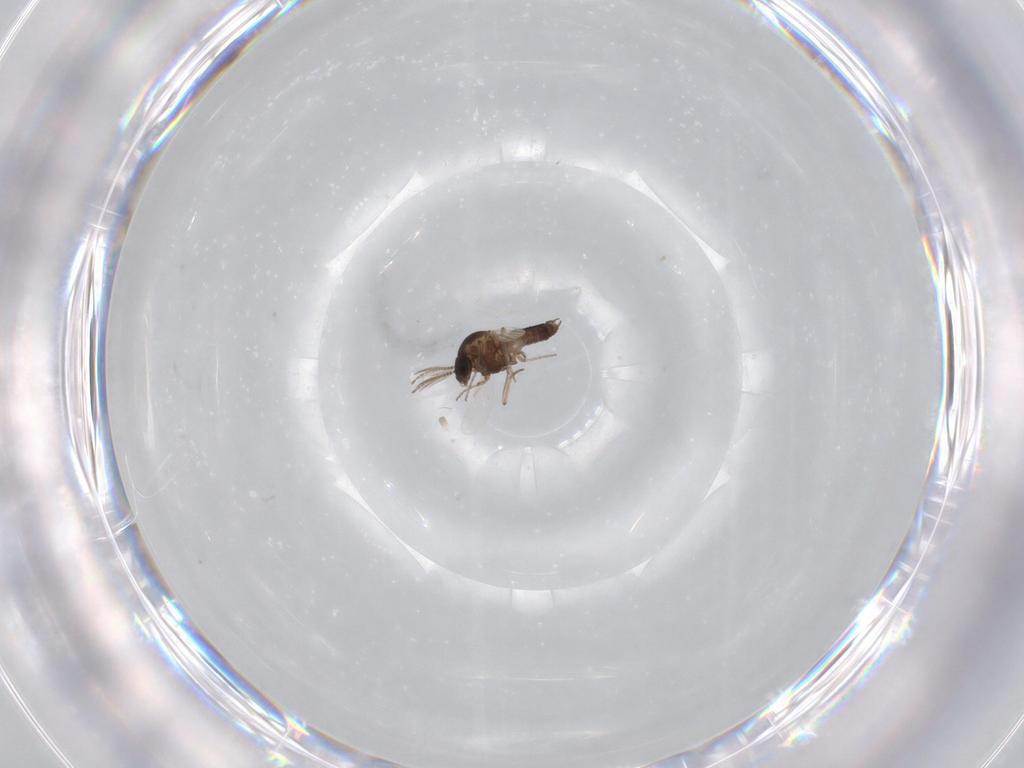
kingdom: Animalia
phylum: Arthropoda
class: Insecta
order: Diptera
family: Ceratopogonidae
